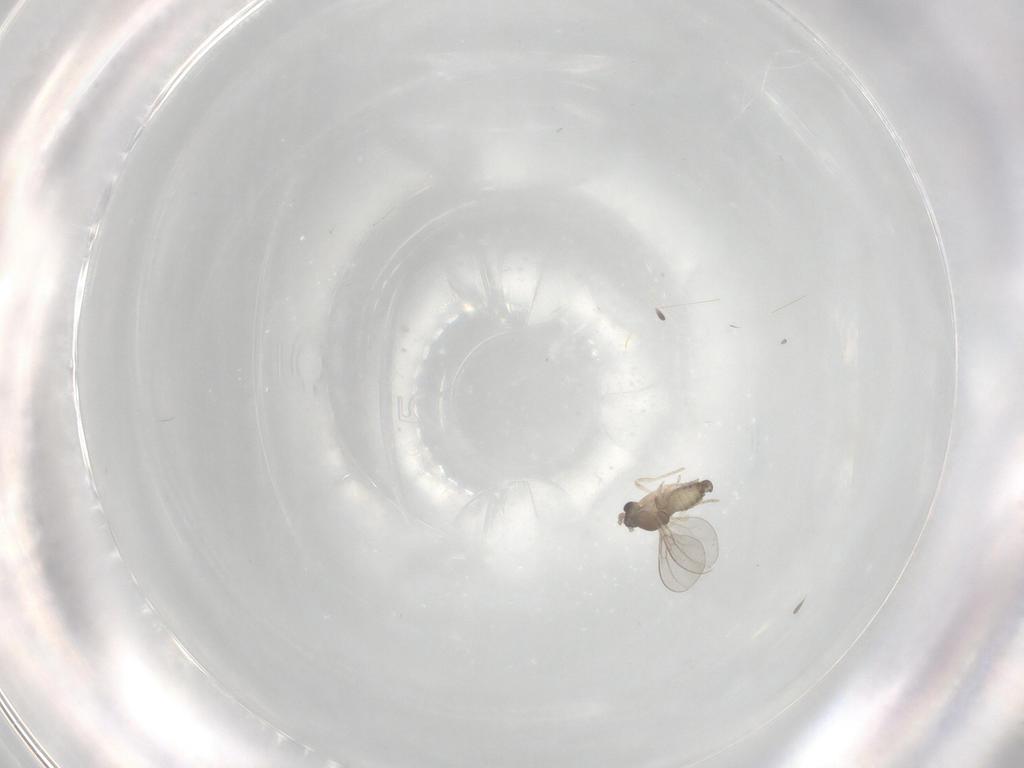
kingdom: Animalia
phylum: Arthropoda
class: Insecta
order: Diptera
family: Cecidomyiidae
